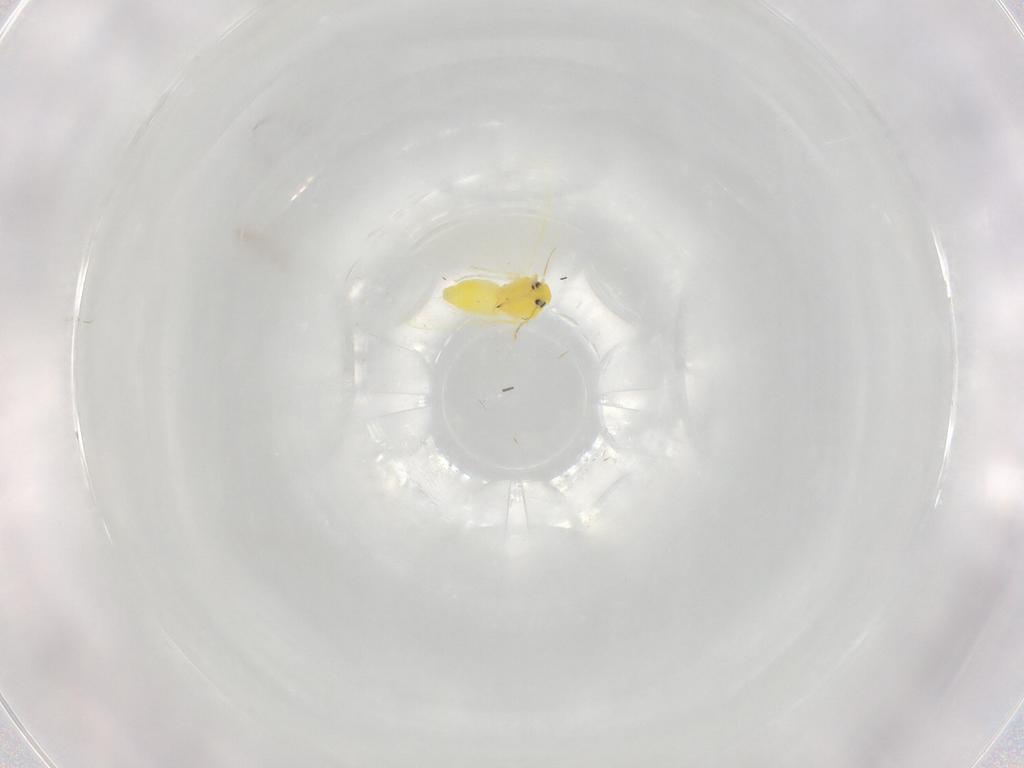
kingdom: Animalia
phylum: Arthropoda
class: Insecta
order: Hemiptera
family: Aleyrodidae
